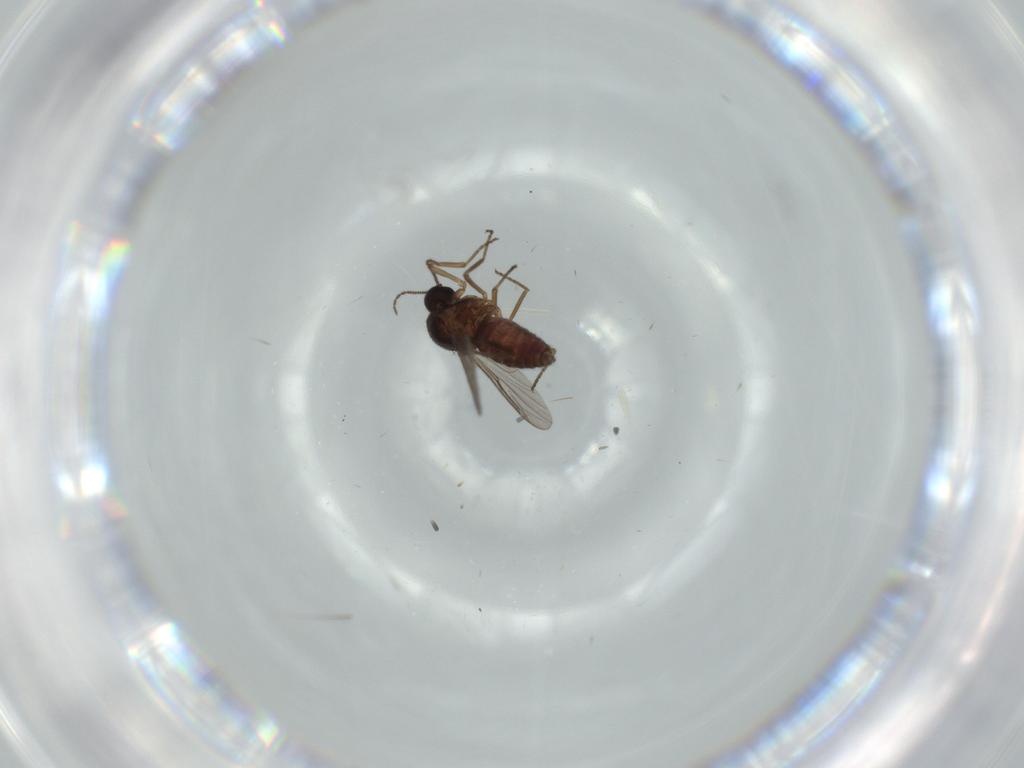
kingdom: Animalia
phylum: Arthropoda
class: Insecta
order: Diptera
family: Ceratopogonidae
